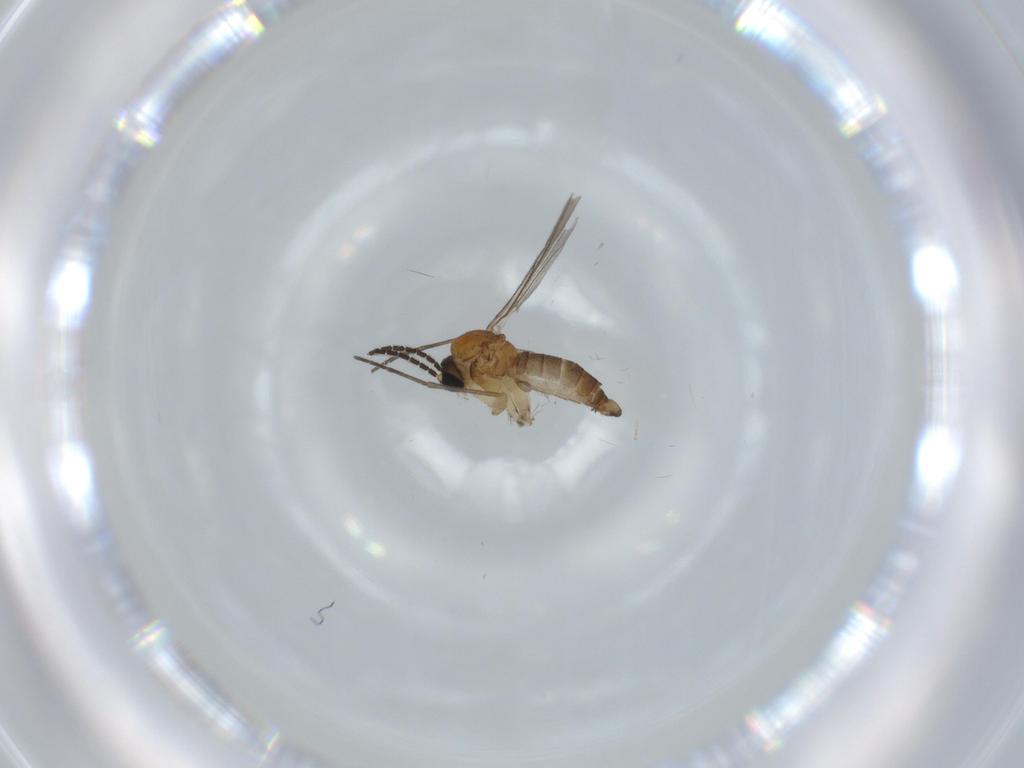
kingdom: Animalia
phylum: Arthropoda
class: Insecta
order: Diptera
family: Sciaridae
